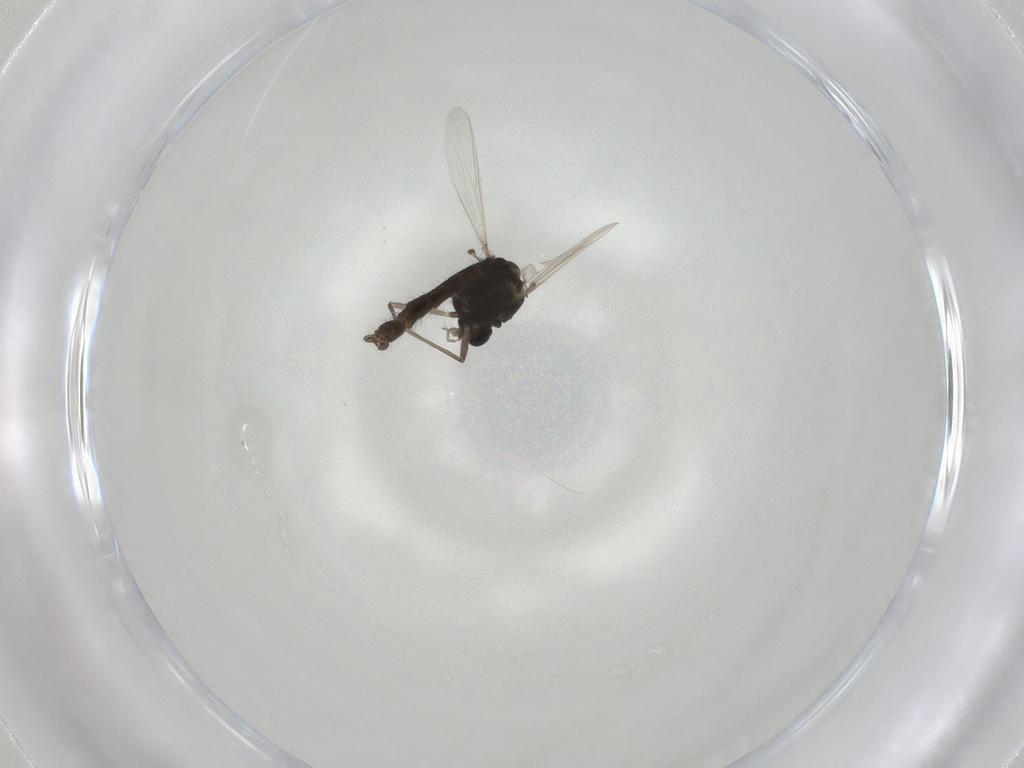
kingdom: Animalia
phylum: Arthropoda
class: Insecta
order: Diptera
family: Chironomidae
